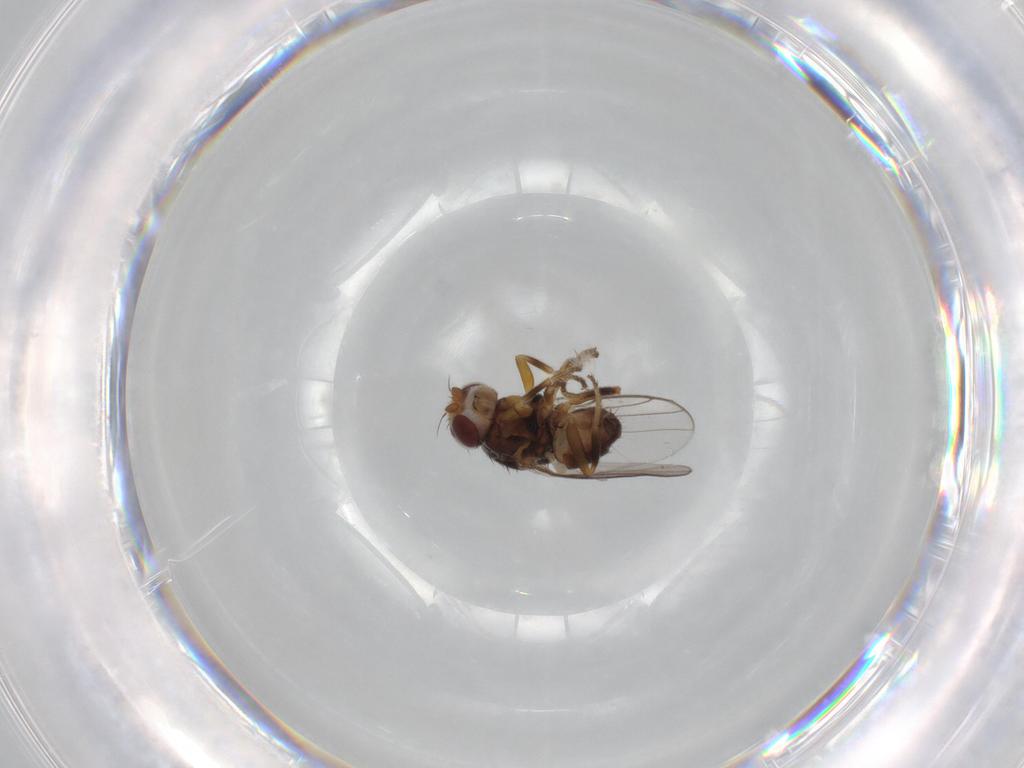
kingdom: Animalia
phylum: Arthropoda
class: Insecta
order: Diptera
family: Chloropidae
